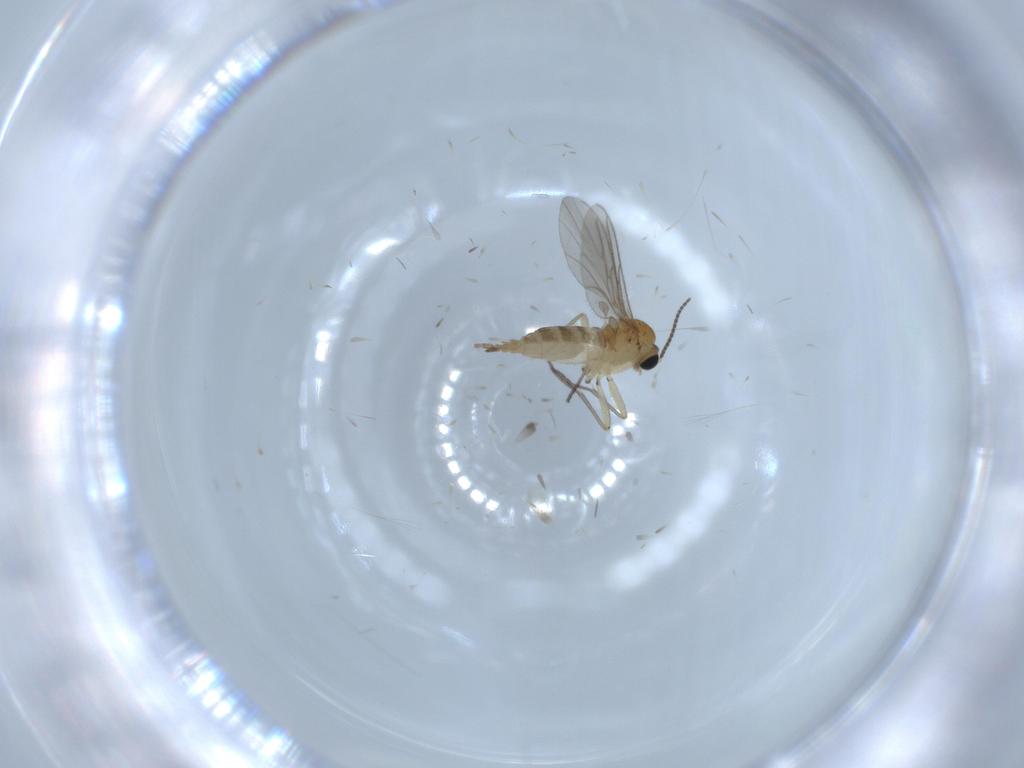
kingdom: Animalia
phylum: Arthropoda
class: Insecta
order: Diptera
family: Sciaridae
